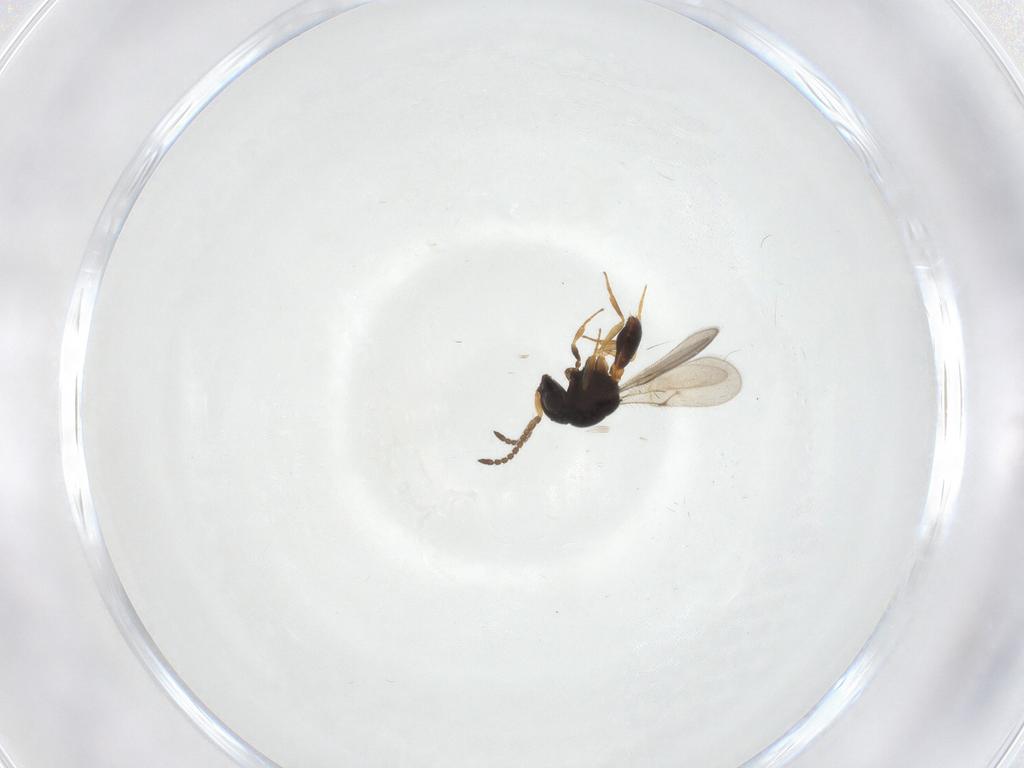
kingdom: Animalia
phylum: Arthropoda
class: Insecta
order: Hymenoptera
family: Scelionidae
